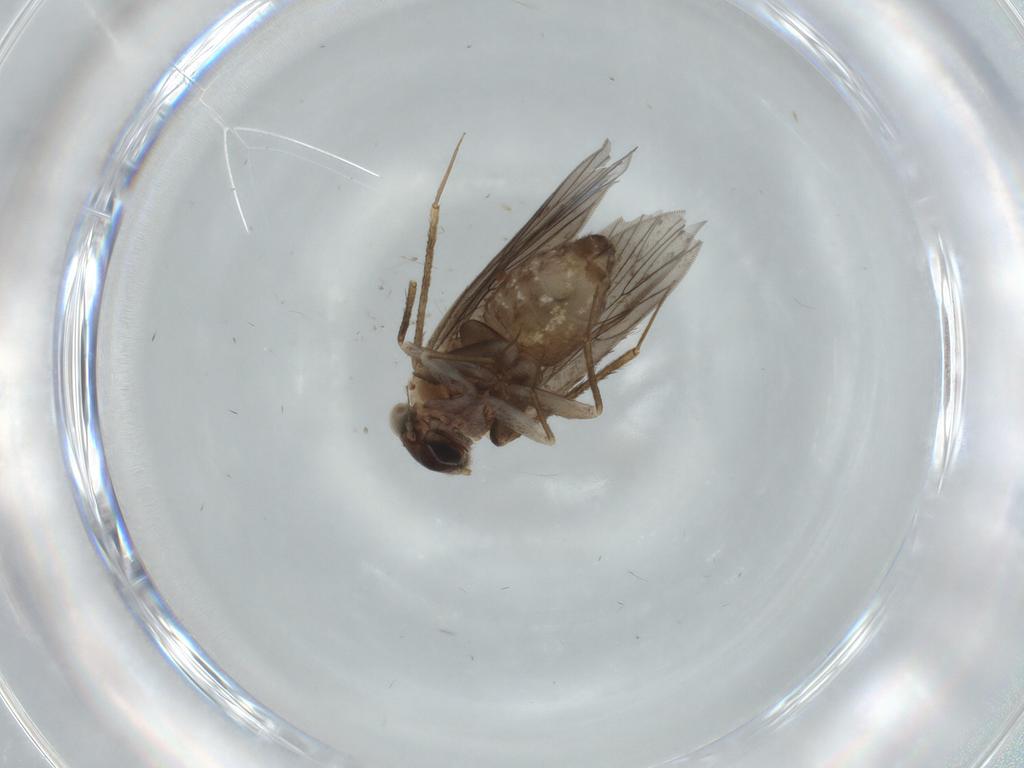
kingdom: Animalia
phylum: Arthropoda
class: Insecta
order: Psocodea
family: Lepidopsocidae
